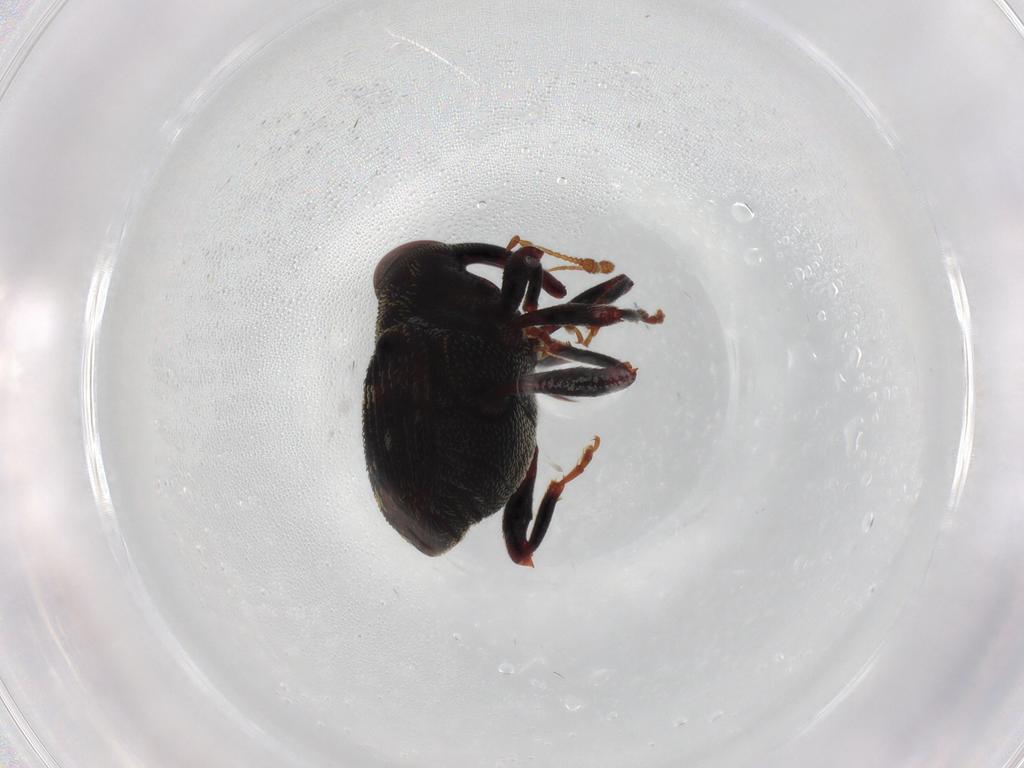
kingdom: Animalia
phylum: Arthropoda
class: Insecta
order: Coleoptera
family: Curculionidae
